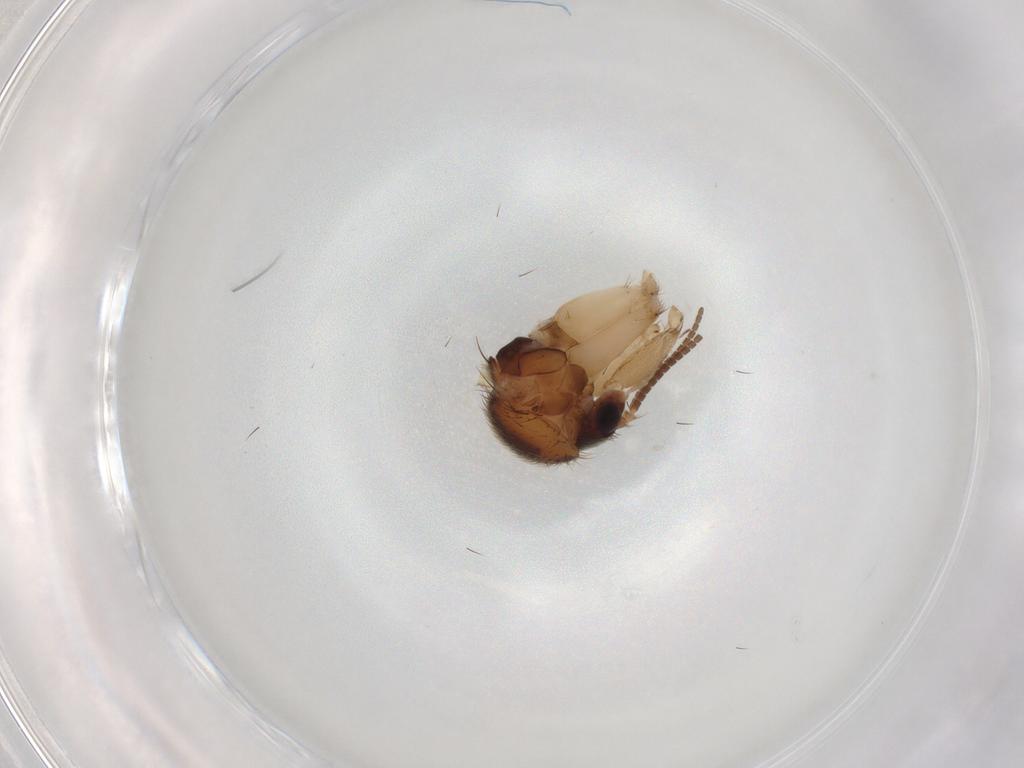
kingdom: Animalia
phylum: Arthropoda
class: Insecta
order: Diptera
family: Mycetophilidae
